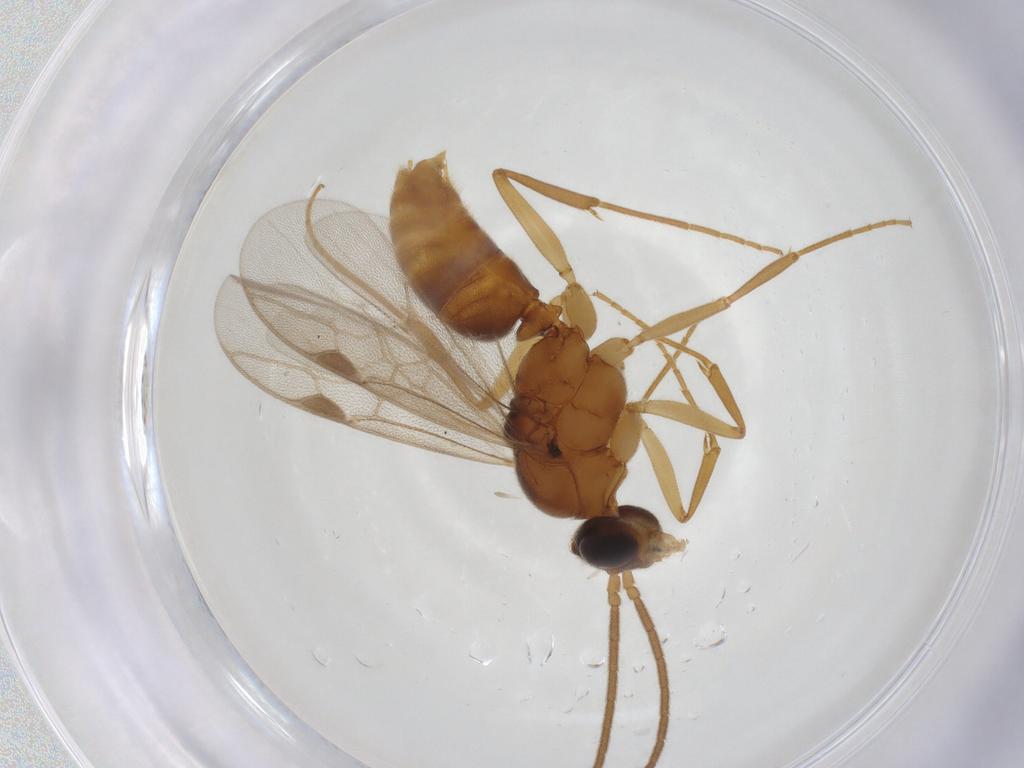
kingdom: Animalia
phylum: Arthropoda
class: Insecta
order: Hymenoptera
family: Formicidae
